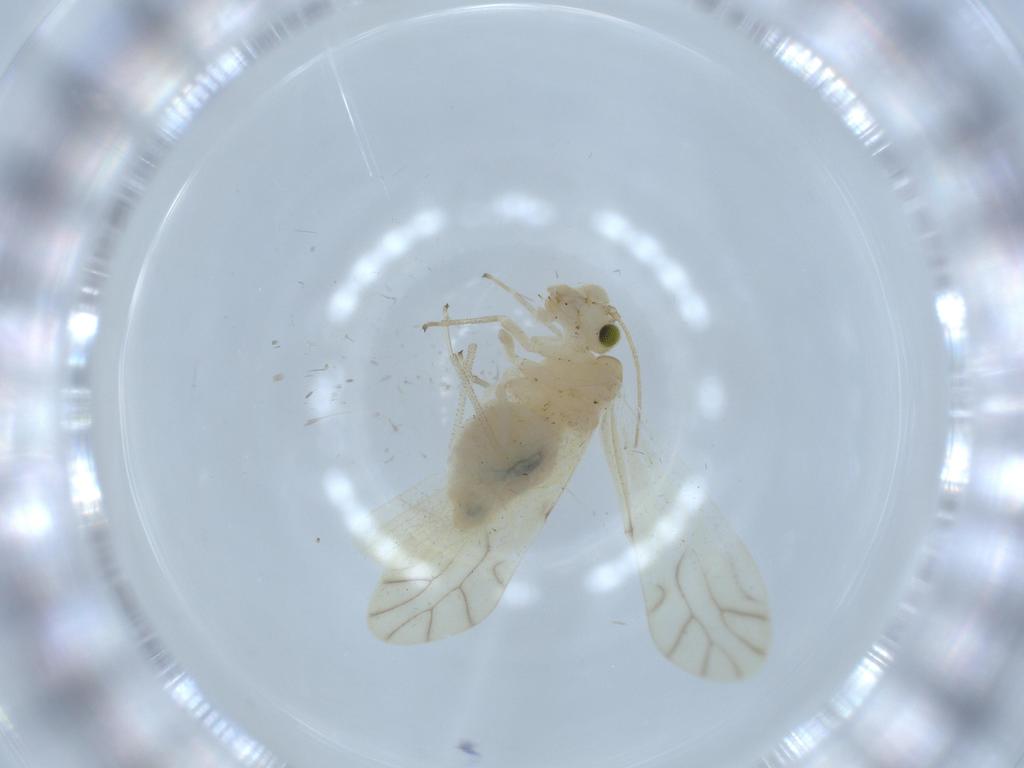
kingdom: Animalia
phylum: Arthropoda
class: Insecta
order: Psocodea
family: Caeciliusidae
